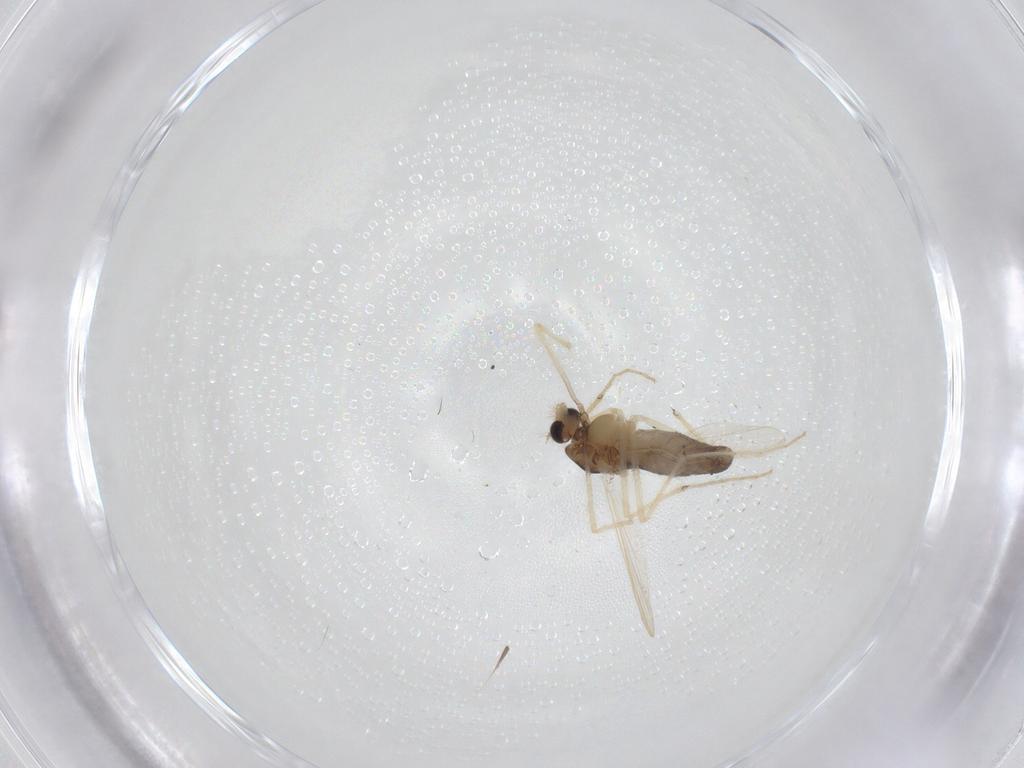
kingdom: Animalia
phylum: Arthropoda
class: Insecta
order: Diptera
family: Chironomidae
